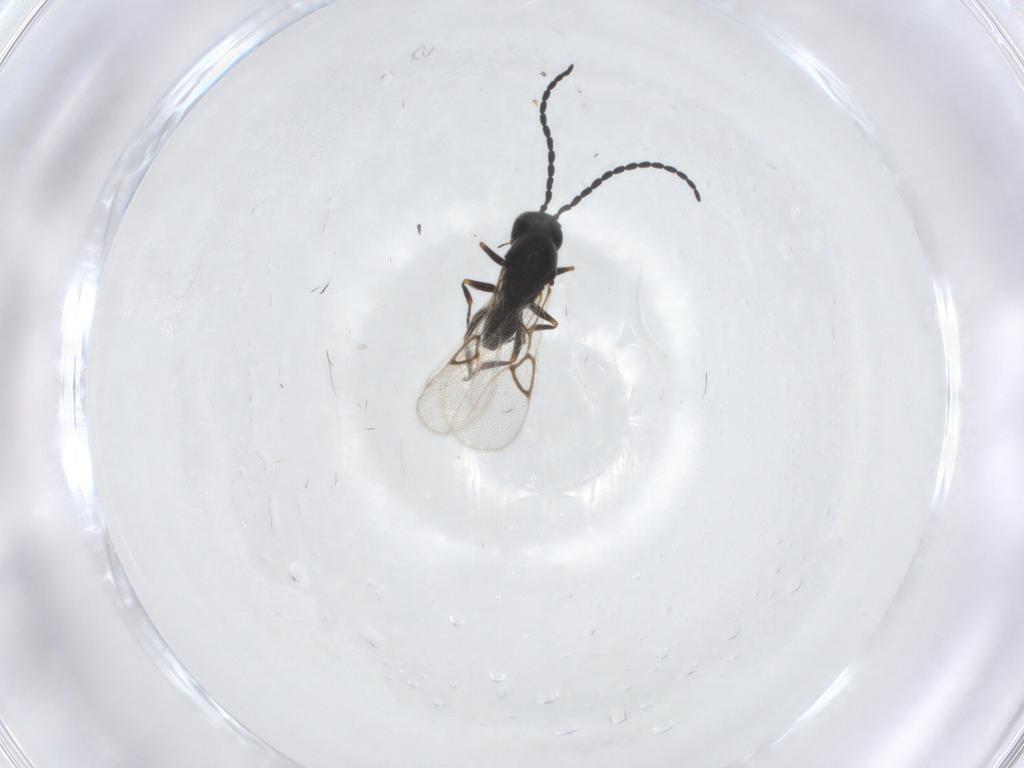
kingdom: Animalia
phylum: Arthropoda
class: Insecta
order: Hymenoptera
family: Figitidae
